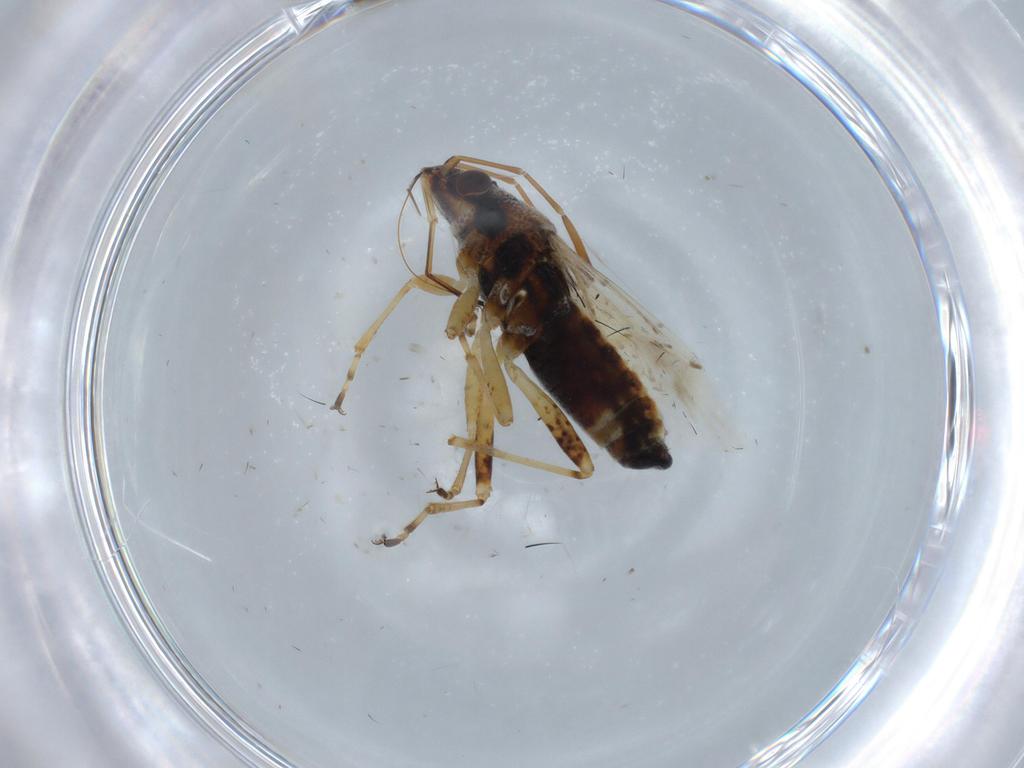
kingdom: Animalia
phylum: Arthropoda
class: Insecta
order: Hemiptera
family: Lygaeidae
